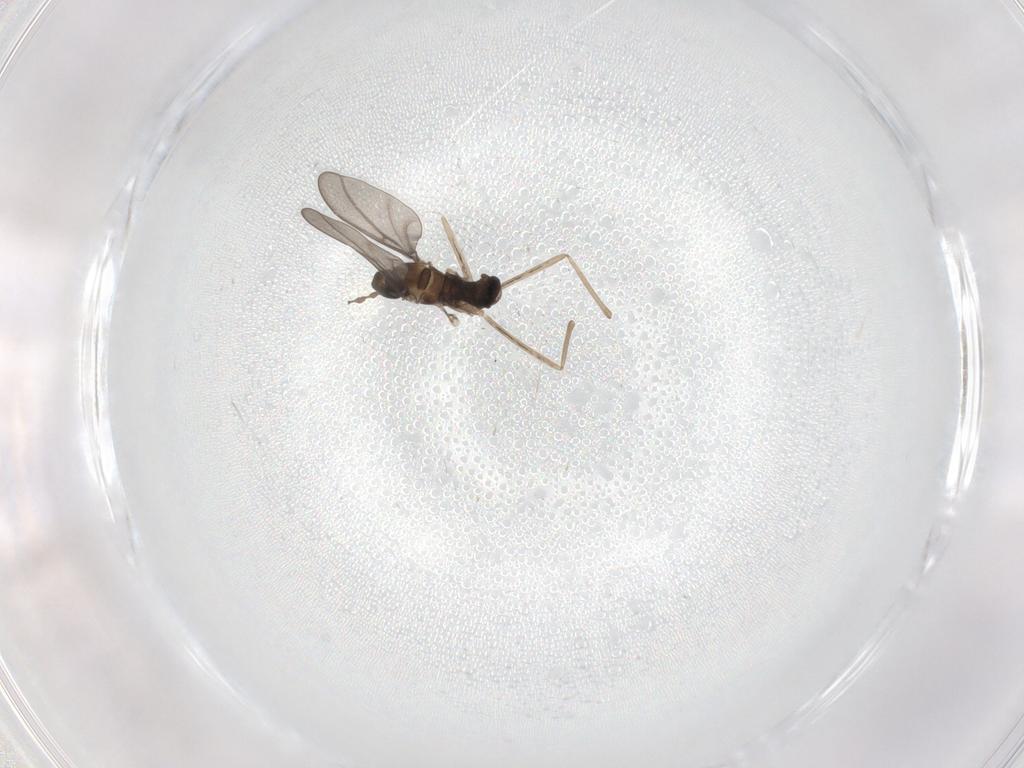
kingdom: Animalia
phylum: Arthropoda
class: Insecta
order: Diptera
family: Cecidomyiidae
